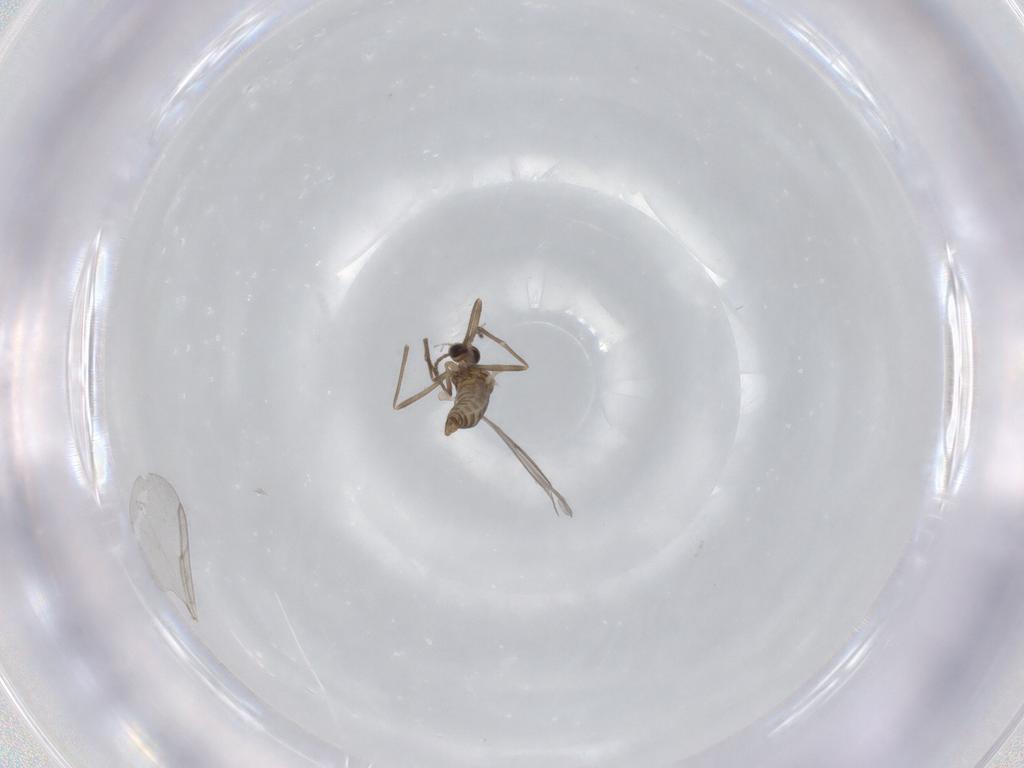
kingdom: Animalia
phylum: Arthropoda
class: Insecta
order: Diptera
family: Cecidomyiidae
